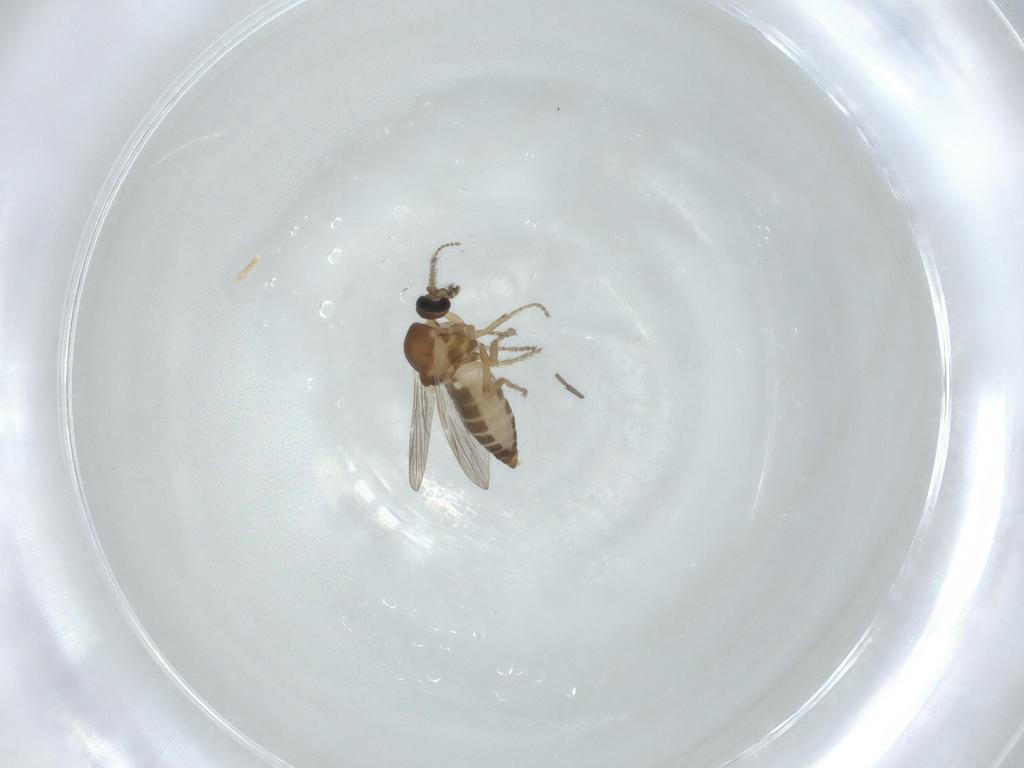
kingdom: Animalia
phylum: Arthropoda
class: Insecta
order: Diptera
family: Ceratopogonidae
